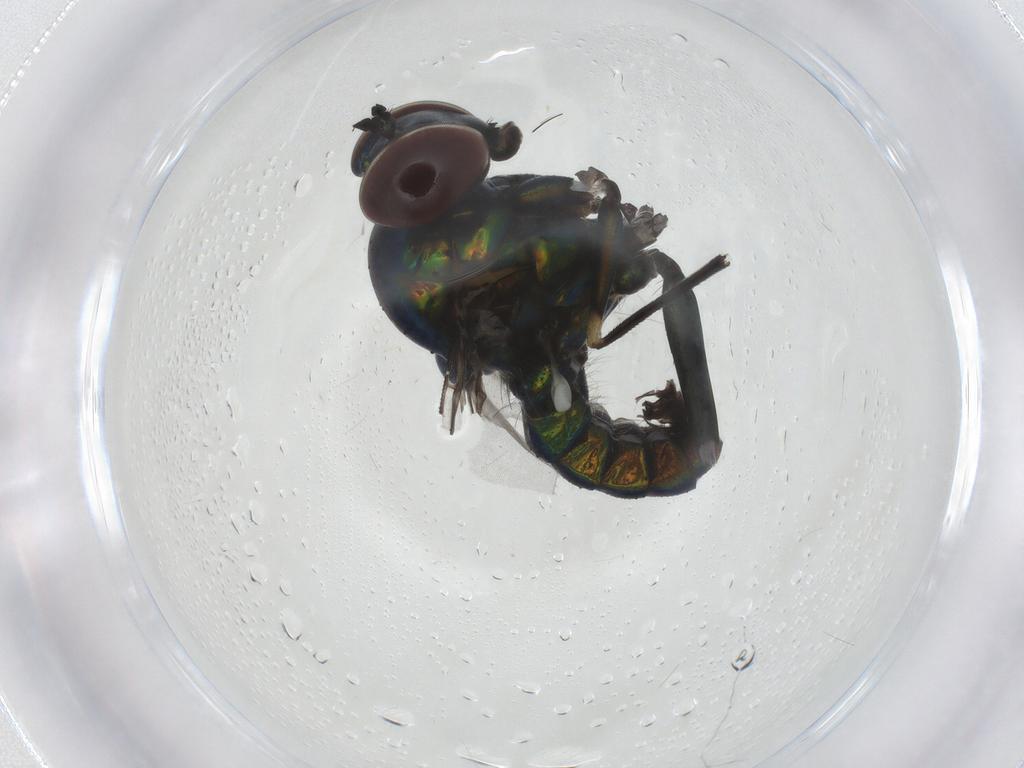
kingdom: Animalia
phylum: Arthropoda
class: Insecta
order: Diptera
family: Dolichopodidae
